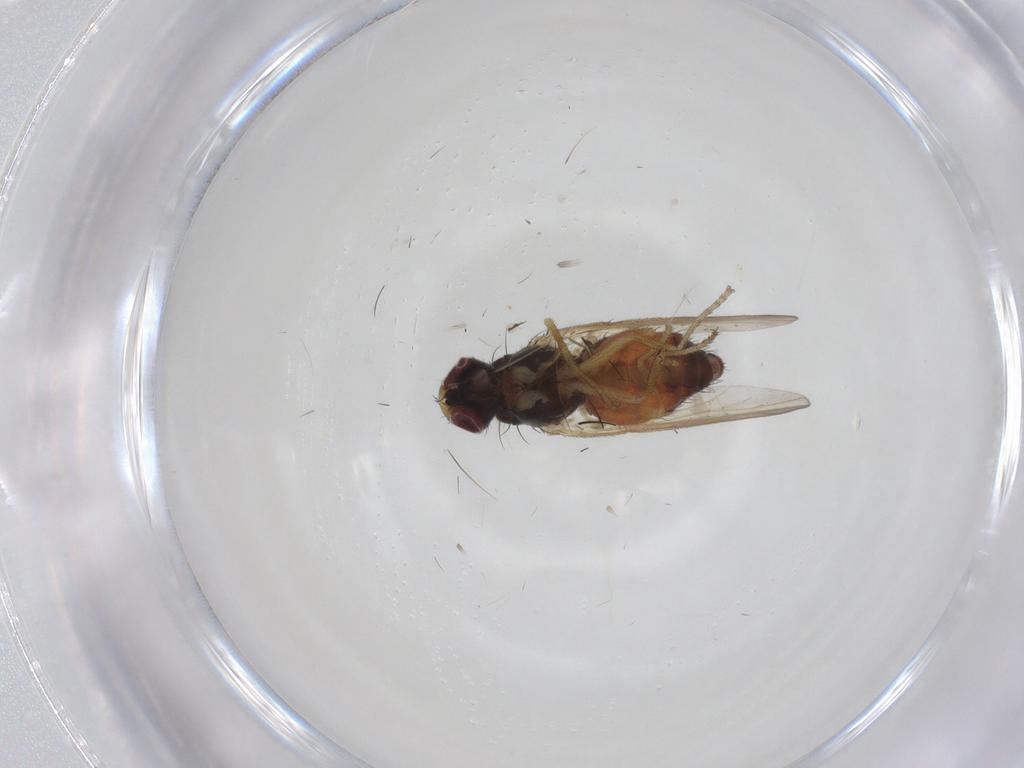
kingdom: Animalia
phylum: Arthropoda
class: Insecta
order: Diptera
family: Heleomyzidae
